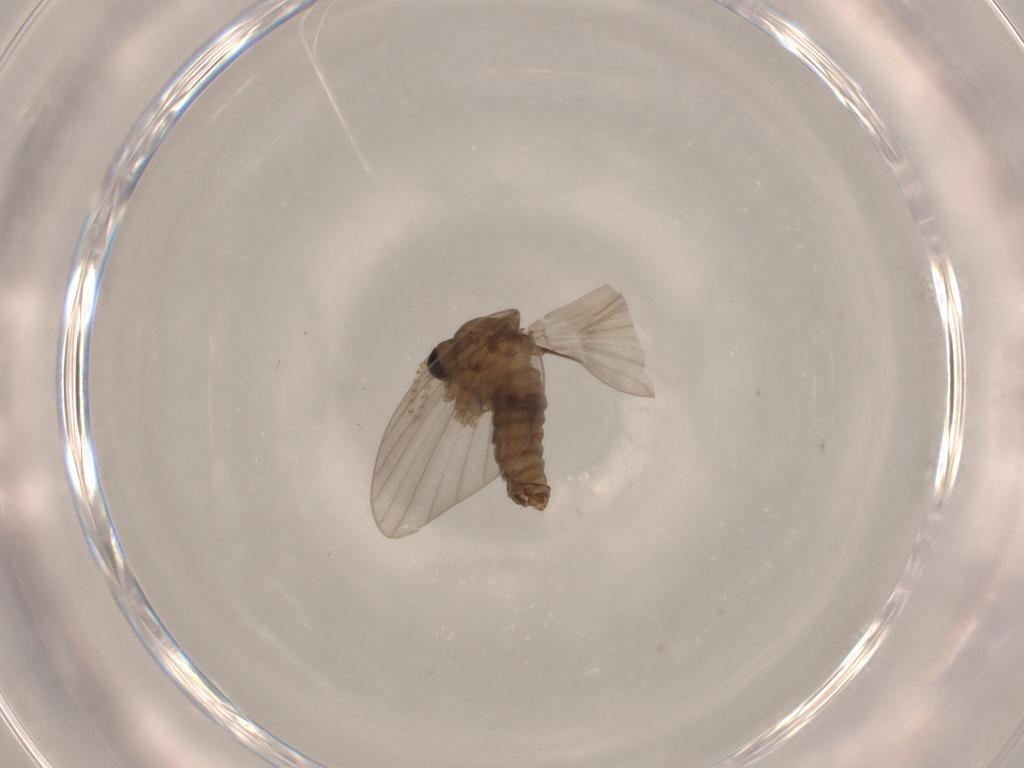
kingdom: Animalia
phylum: Arthropoda
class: Insecta
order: Diptera
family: Psychodidae
